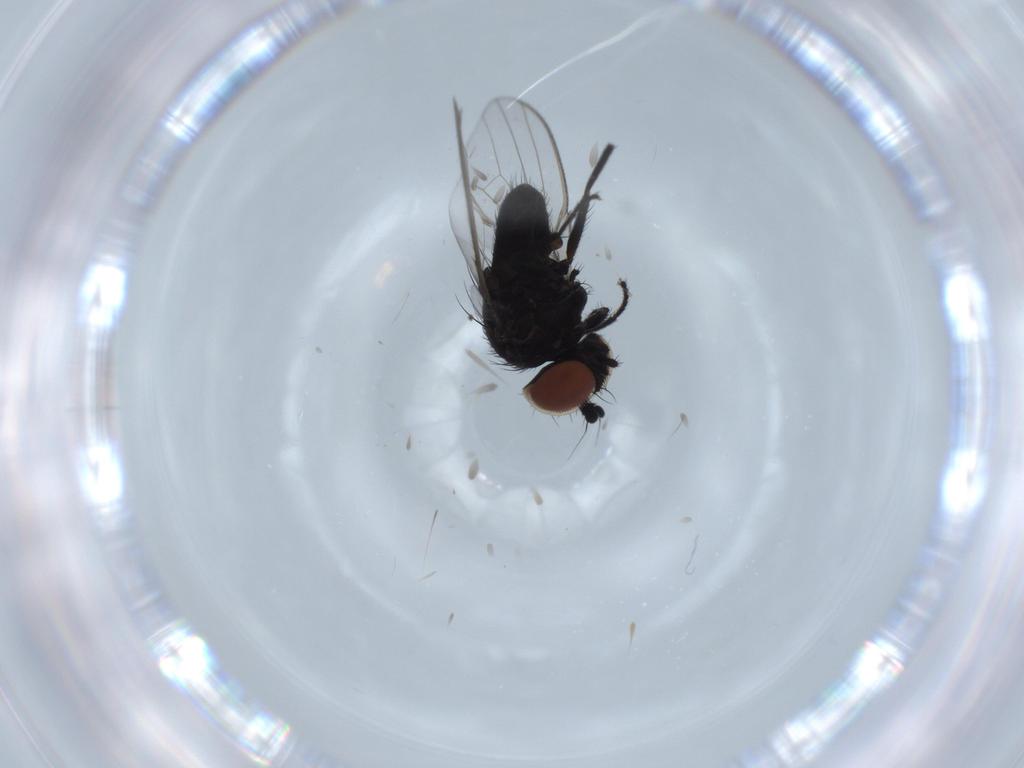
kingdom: Animalia
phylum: Arthropoda
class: Insecta
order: Diptera
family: Milichiidae
